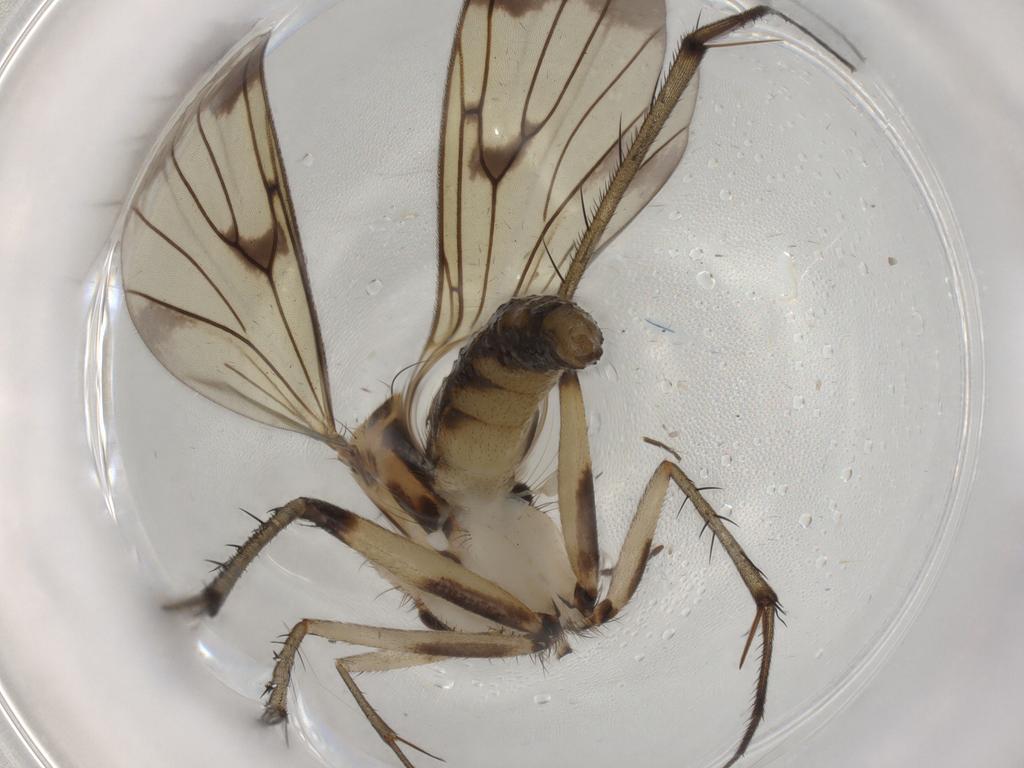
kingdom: Animalia
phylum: Arthropoda
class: Insecta
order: Diptera
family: Mycetophilidae
